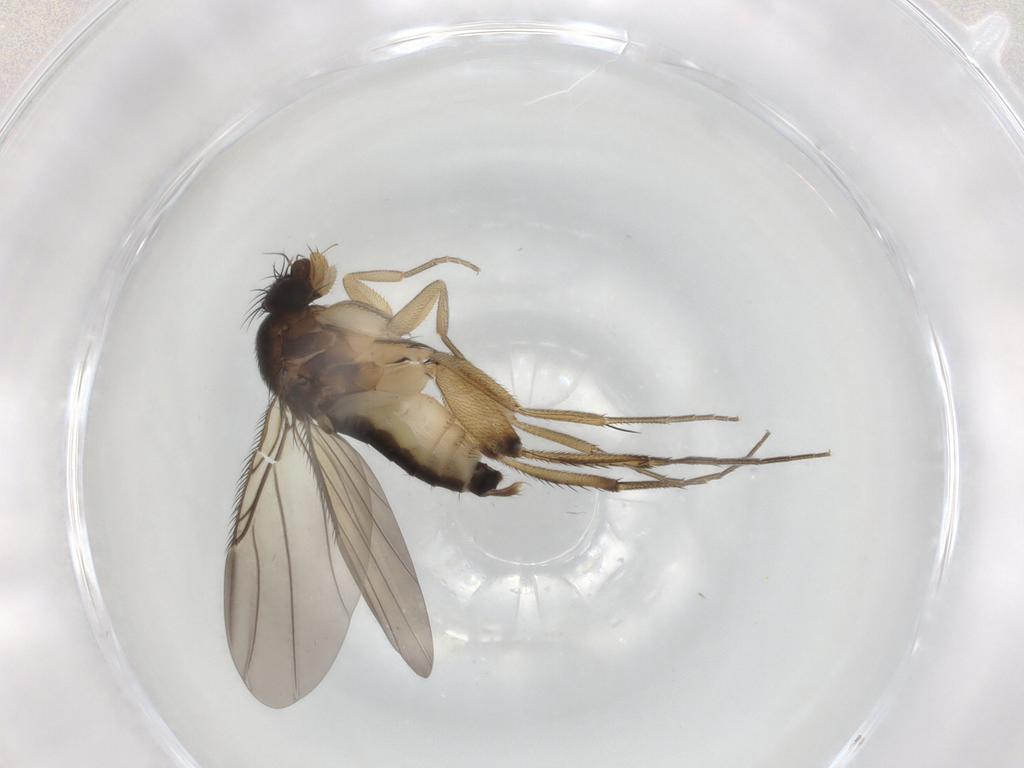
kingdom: Animalia
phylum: Arthropoda
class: Insecta
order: Diptera
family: Phoridae
